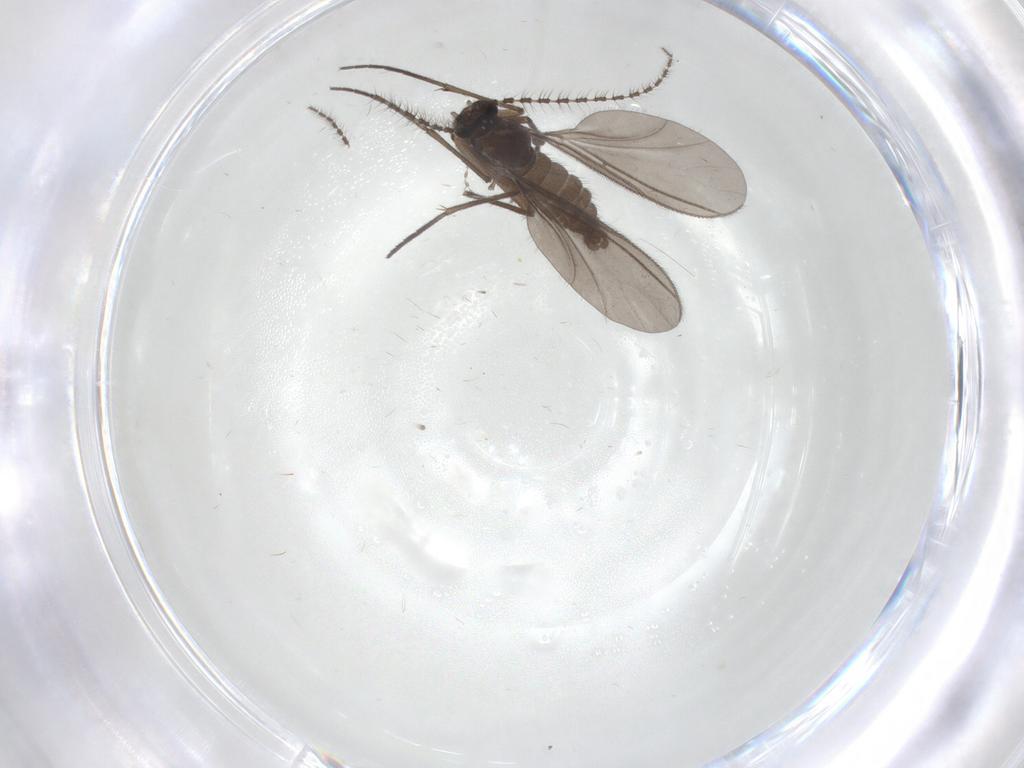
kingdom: Animalia
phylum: Arthropoda
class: Insecta
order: Diptera
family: Sciaridae
